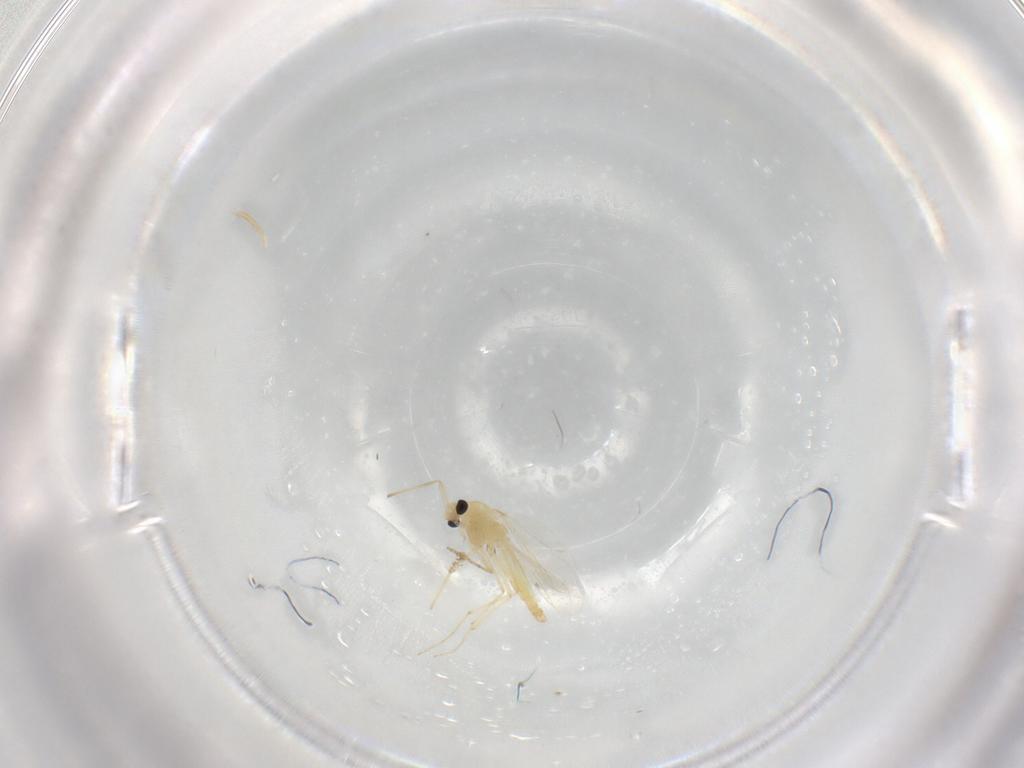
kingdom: Animalia
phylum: Arthropoda
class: Insecta
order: Diptera
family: Chironomidae
